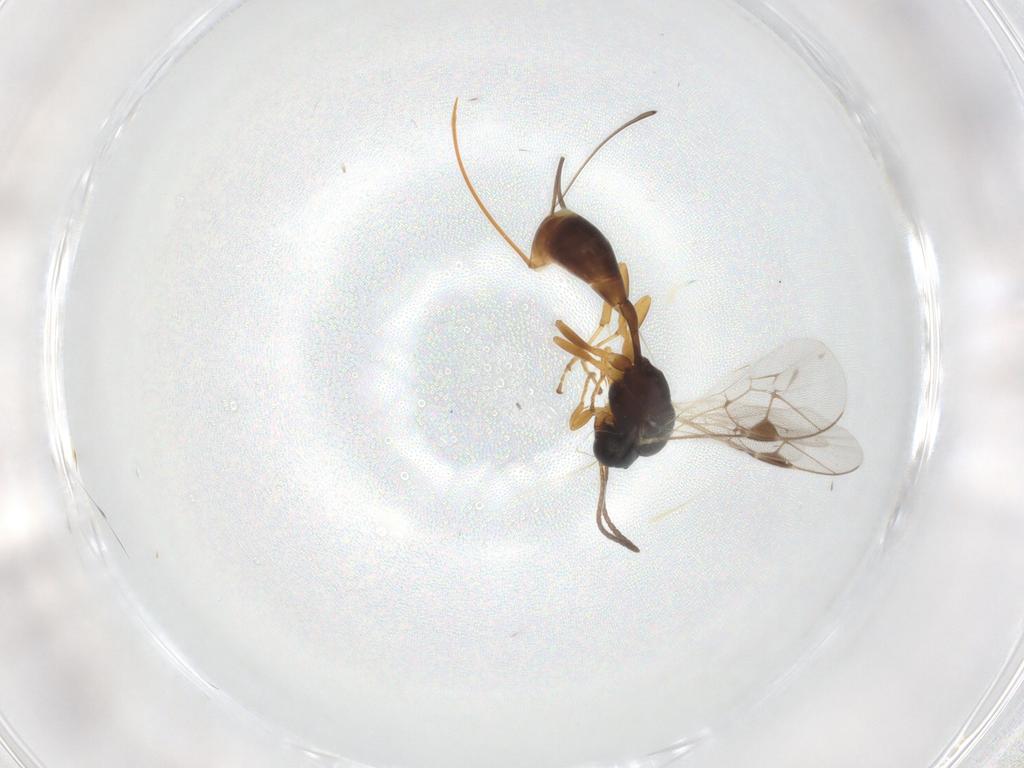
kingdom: Animalia
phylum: Arthropoda
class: Insecta
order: Hymenoptera
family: Ichneumonidae
